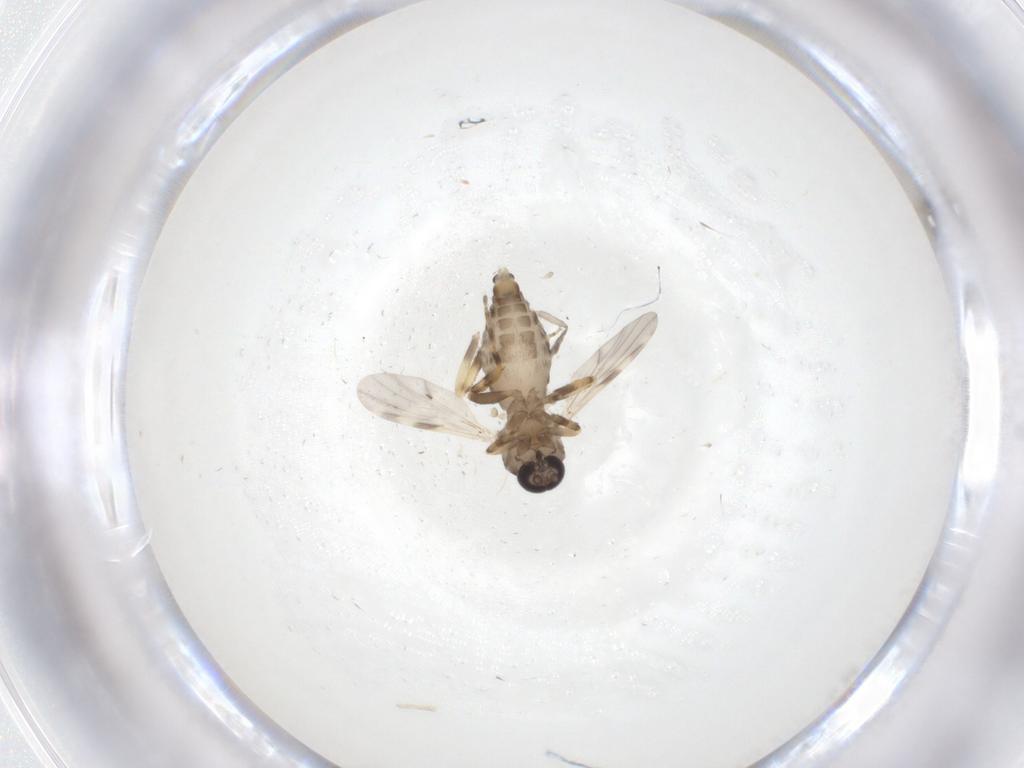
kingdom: Animalia
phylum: Arthropoda
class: Insecta
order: Diptera
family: Ceratopogonidae
